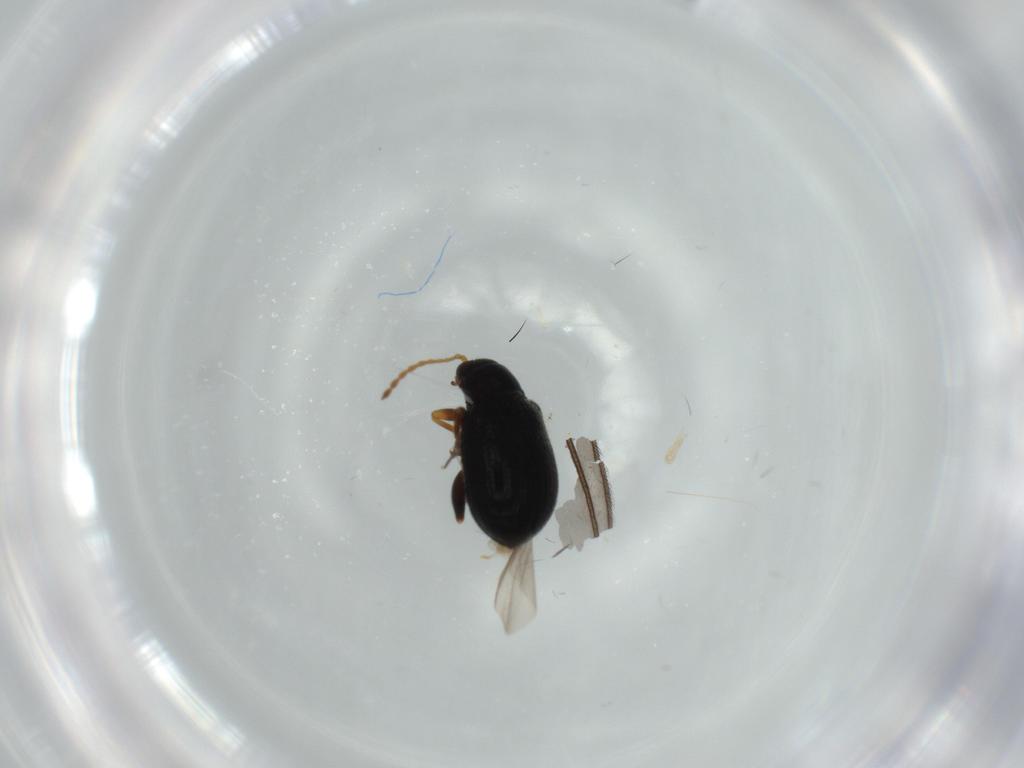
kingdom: Animalia
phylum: Arthropoda
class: Insecta
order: Coleoptera
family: Chrysomelidae
